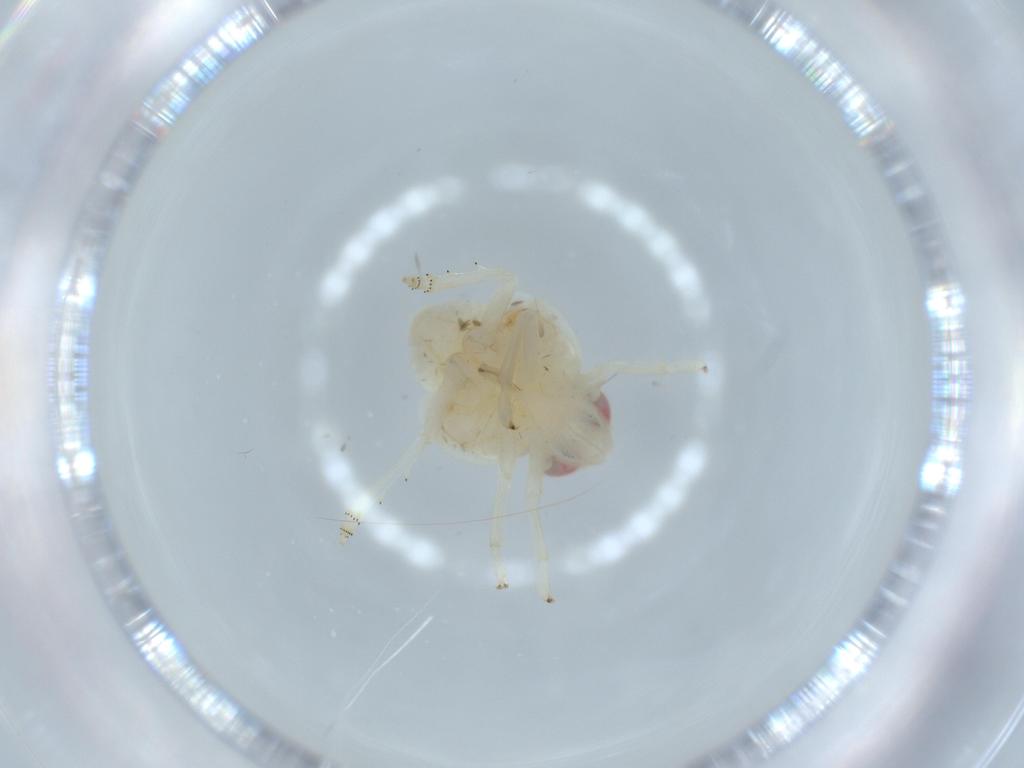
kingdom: Animalia
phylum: Arthropoda
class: Insecta
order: Hemiptera
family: Nogodinidae
